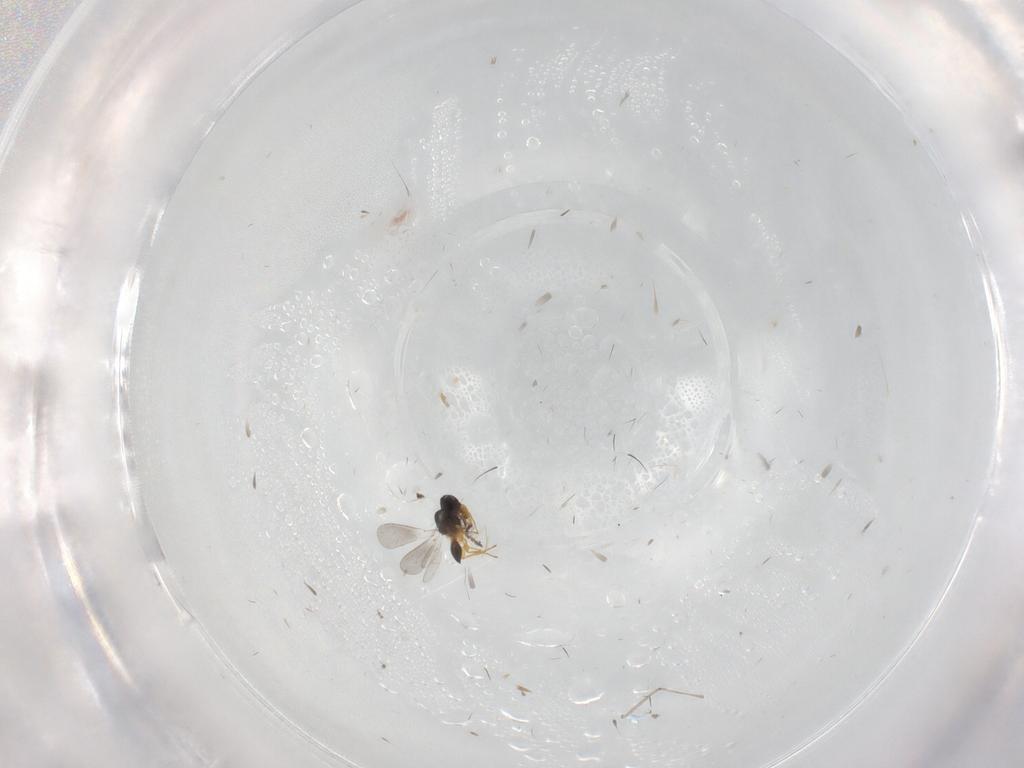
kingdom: Animalia
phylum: Arthropoda
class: Insecta
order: Hymenoptera
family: Platygastridae
